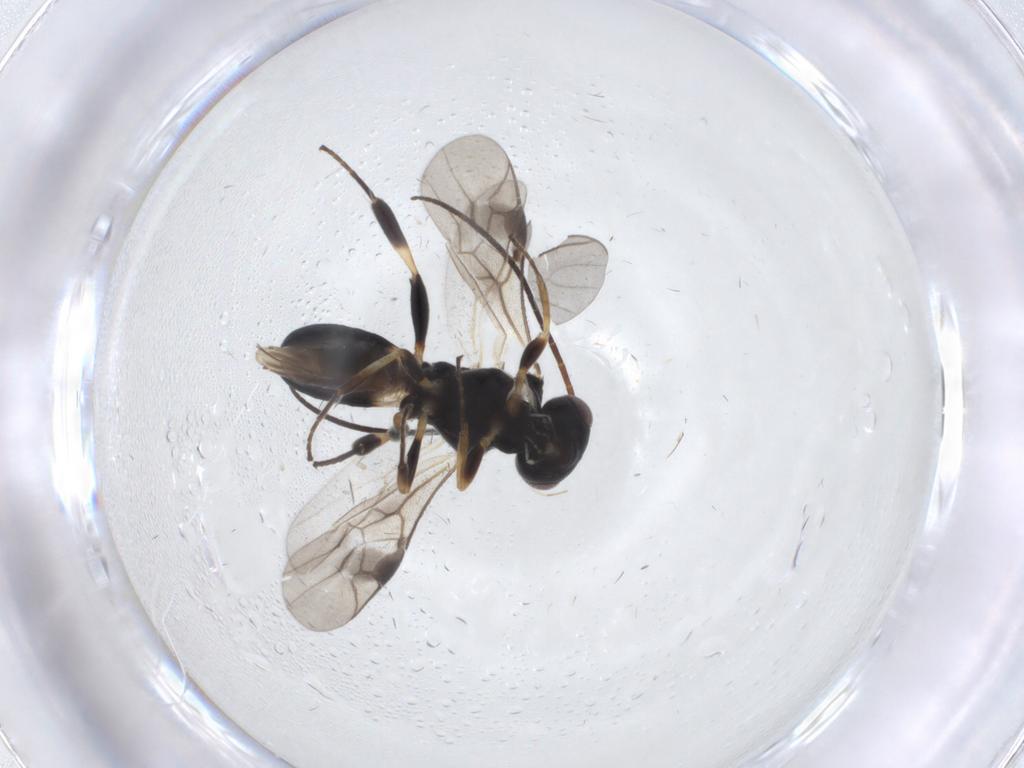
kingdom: Animalia
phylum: Arthropoda
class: Insecta
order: Hymenoptera
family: Braconidae
